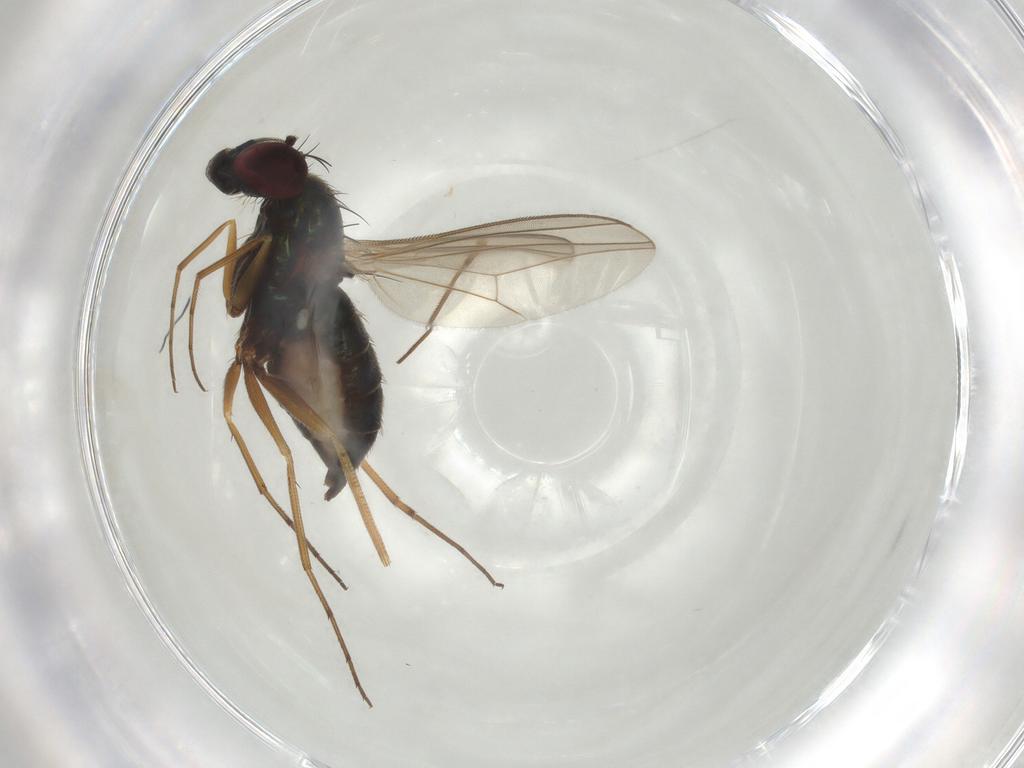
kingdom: Animalia
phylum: Arthropoda
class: Insecta
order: Diptera
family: Dolichopodidae
